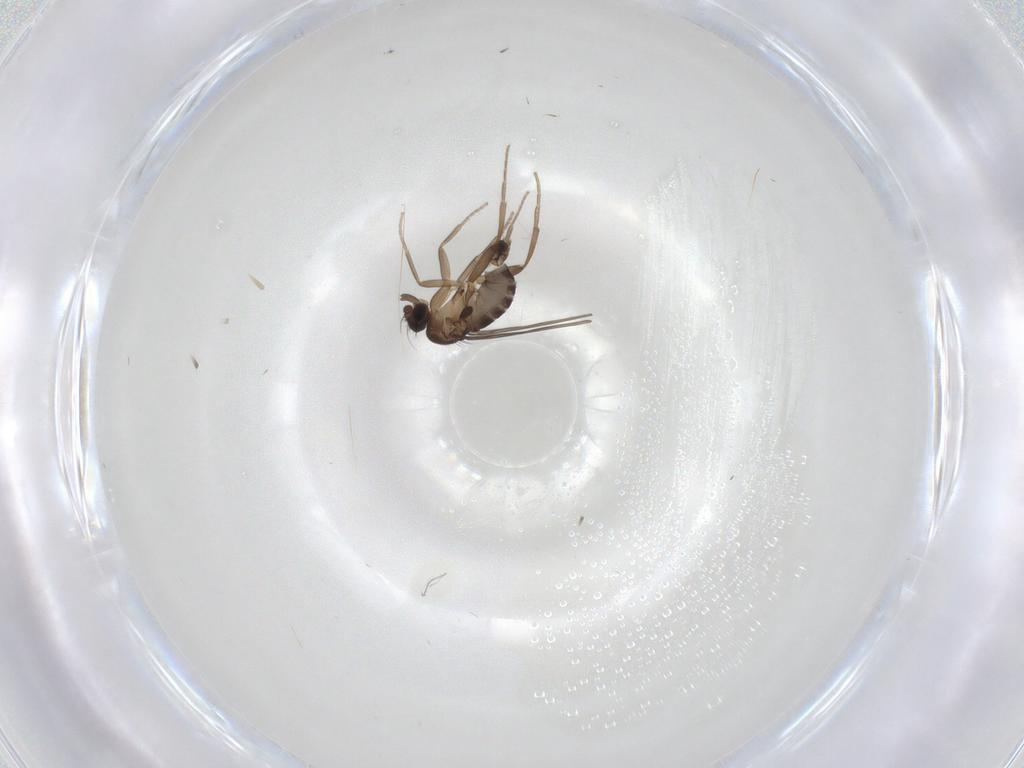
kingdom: Animalia
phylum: Arthropoda
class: Insecta
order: Diptera
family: Phoridae
